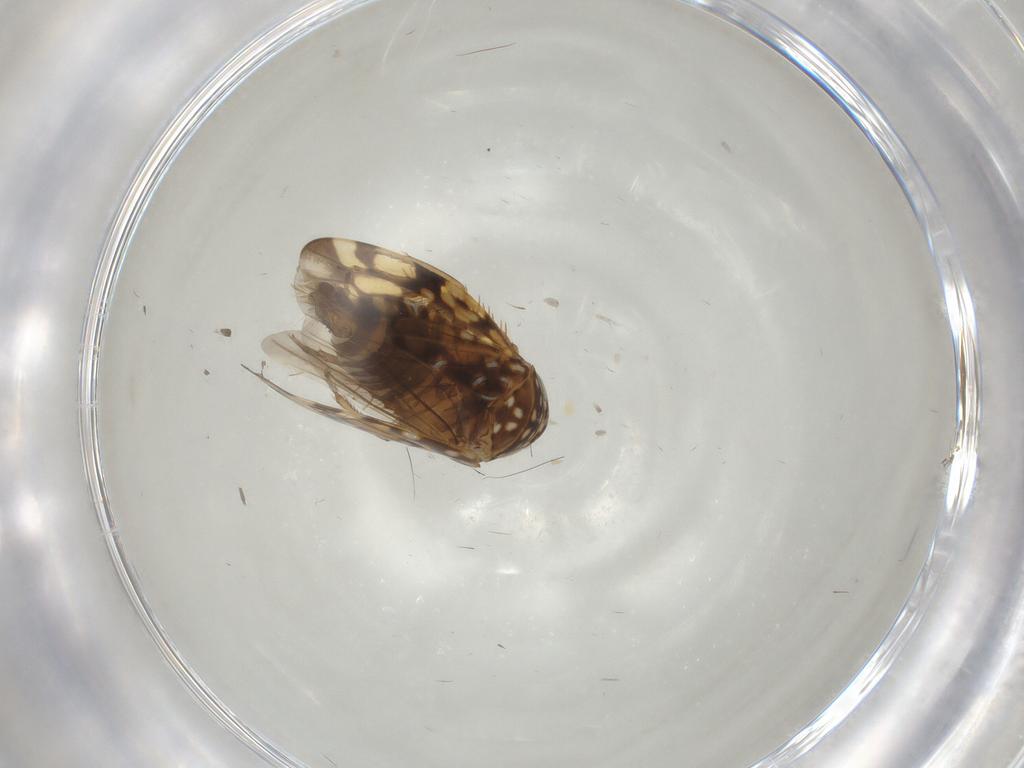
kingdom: Animalia
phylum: Arthropoda
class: Insecta
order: Hemiptera
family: Cicadellidae
